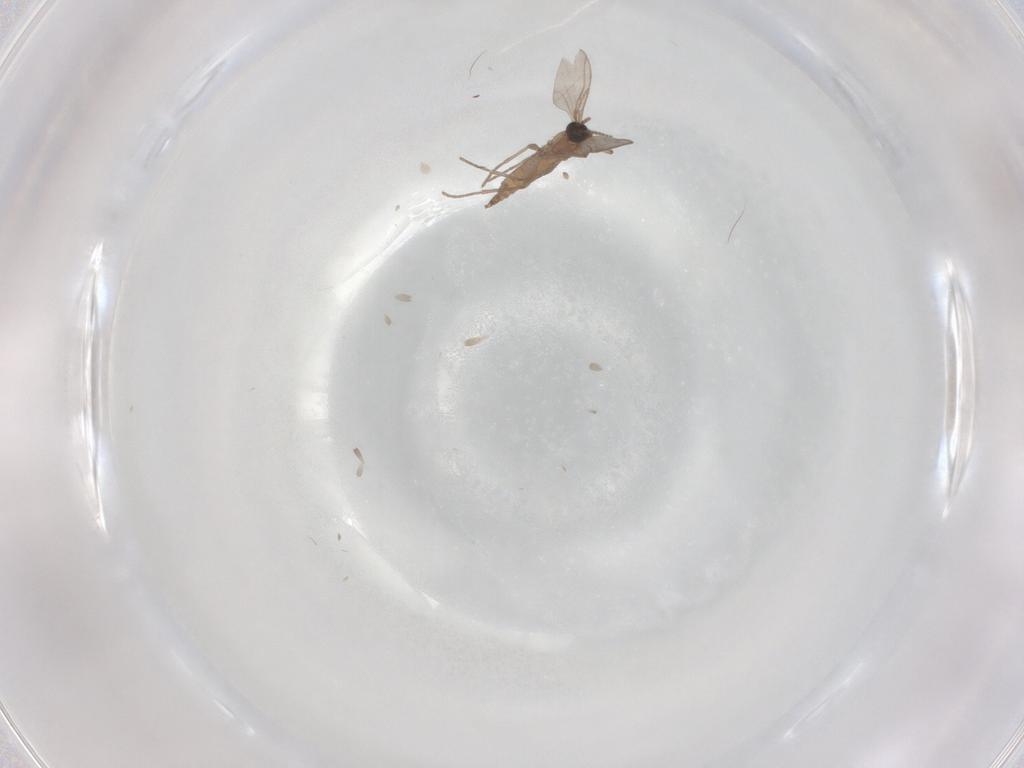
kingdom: Animalia
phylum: Arthropoda
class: Insecta
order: Diptera
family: Sciaridae
